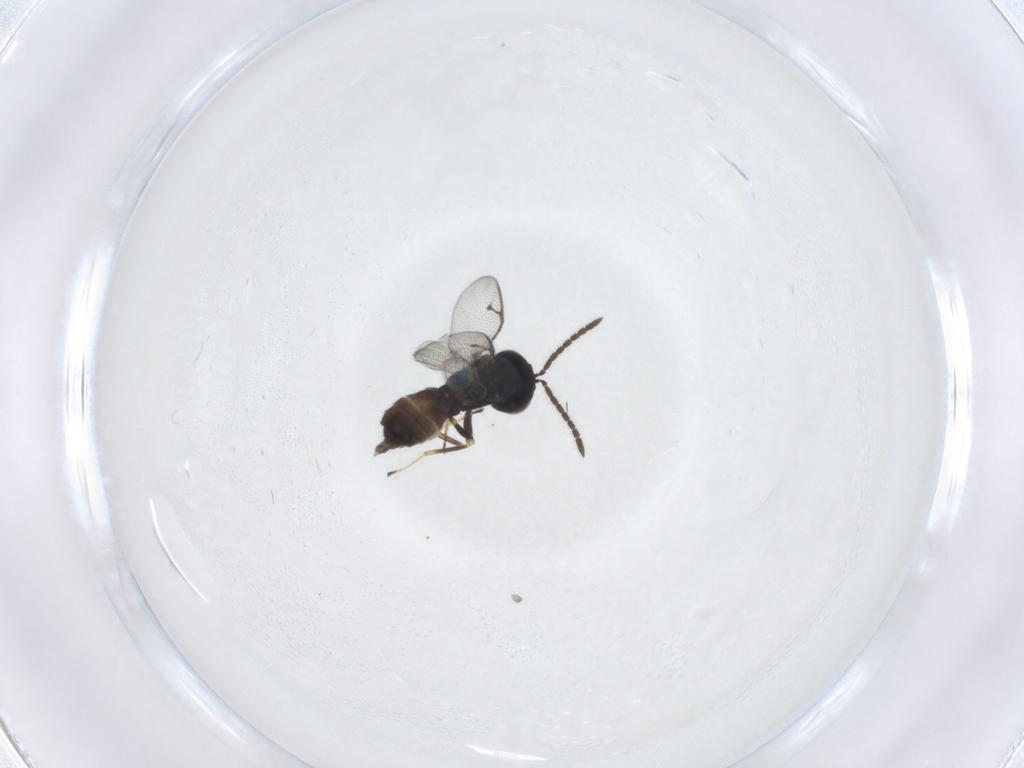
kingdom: Animalia
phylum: Arthropoda
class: Insecta
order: Hymenoptera
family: Pteromalidae
